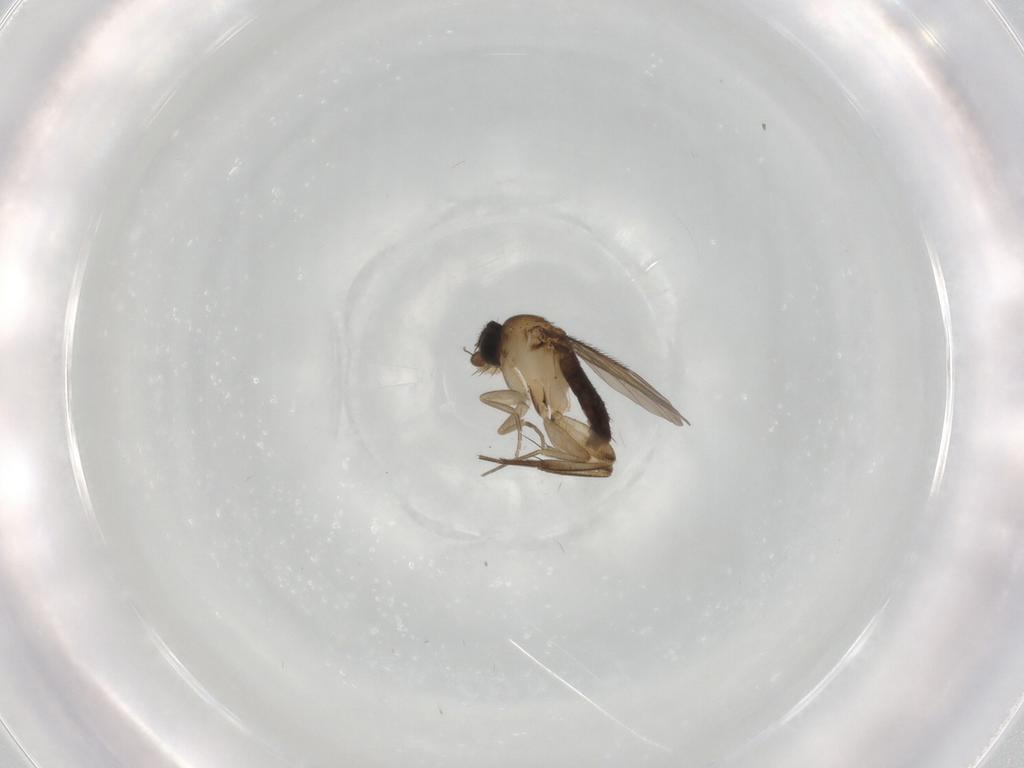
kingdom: Animalia
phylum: Arthropoda
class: Insecta
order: Diptera
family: Phoridae
